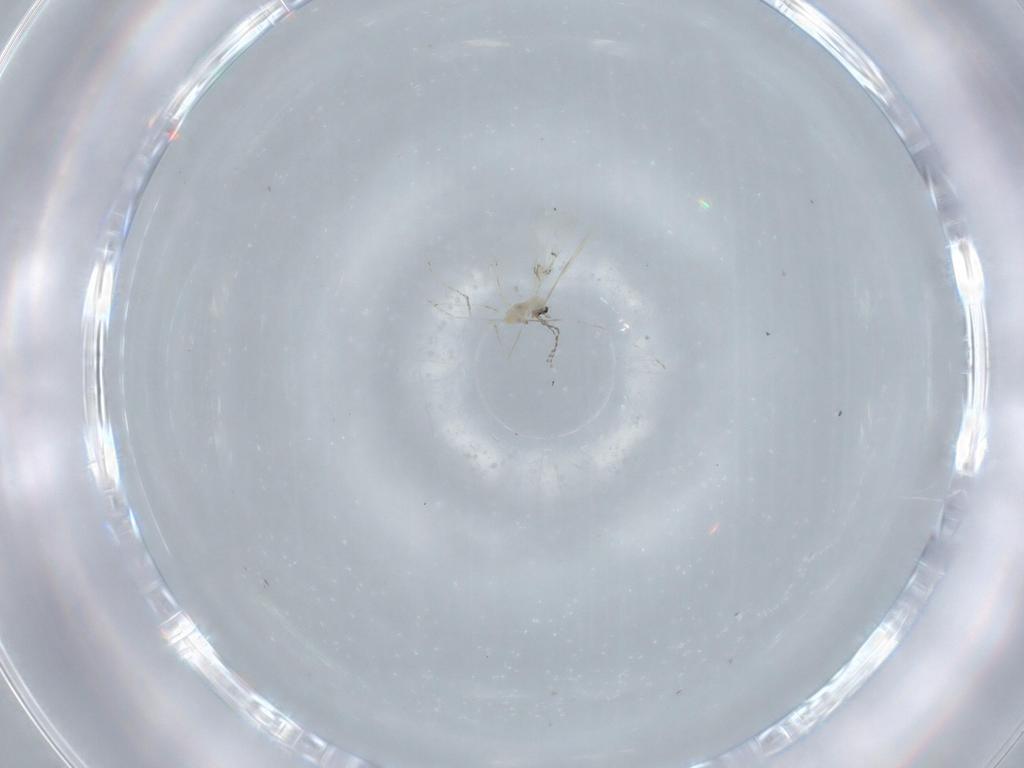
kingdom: Animalia
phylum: Arthropoda
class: Insecta
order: Diptera
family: Cecidomyiidae
